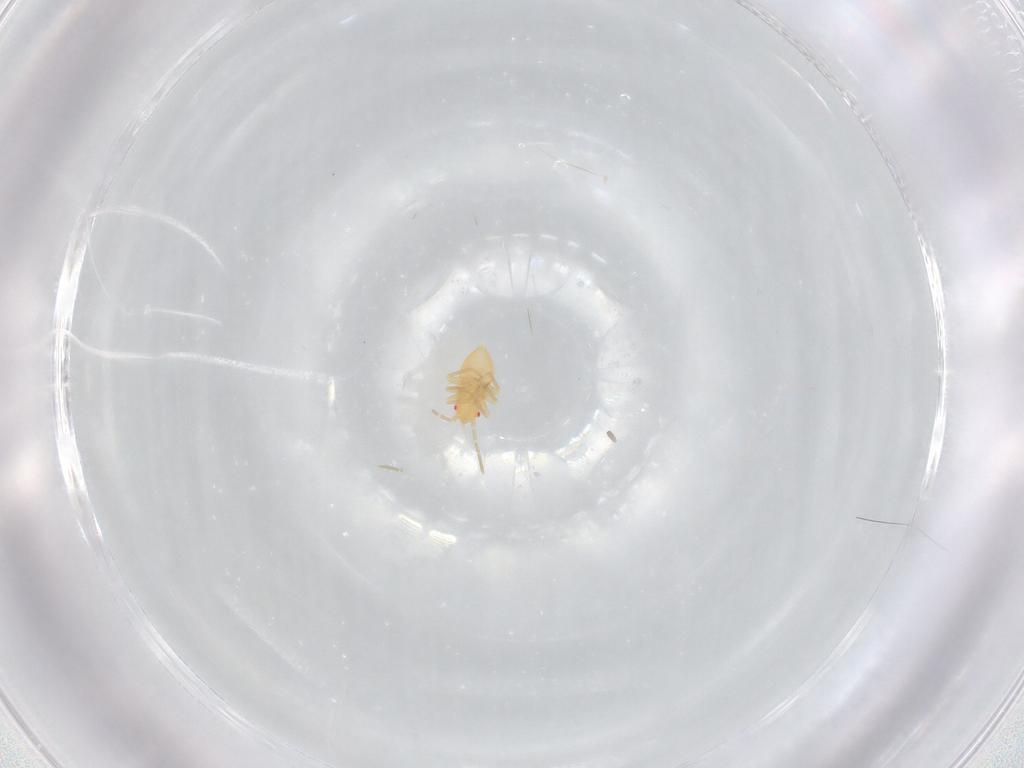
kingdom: Animalia
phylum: Arthropoda
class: Insecta
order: Hemiptera
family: Miridae
